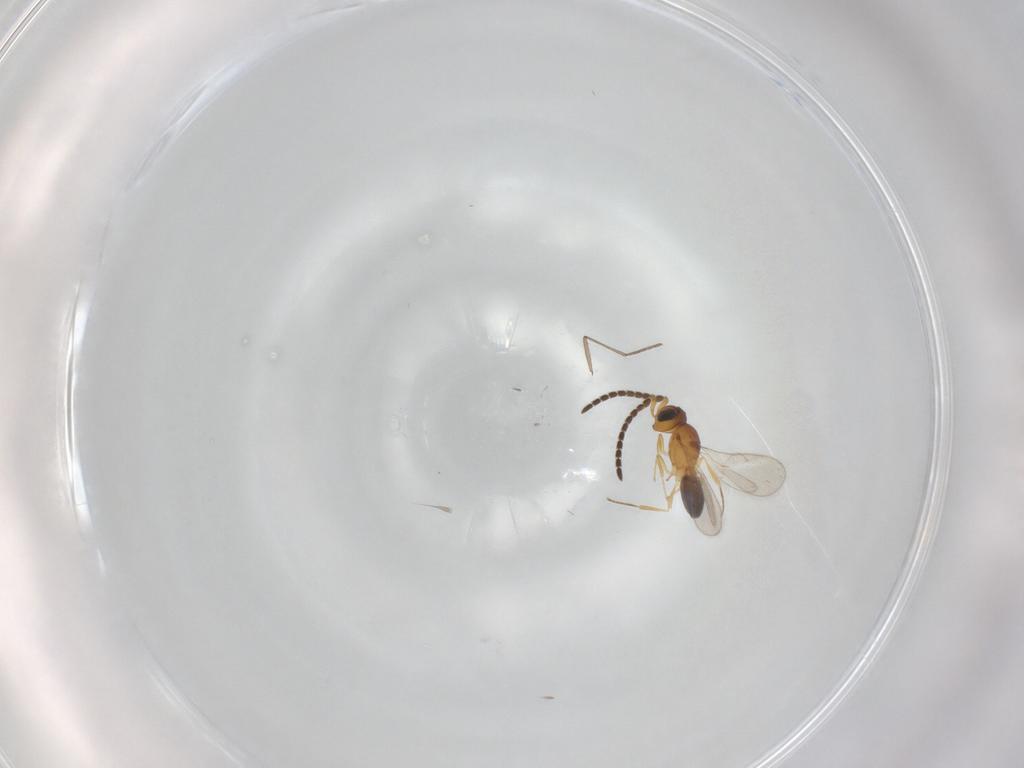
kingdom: Animalia
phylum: Arthropoda
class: Insecta
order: Hymenoptera
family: Scelionidae
